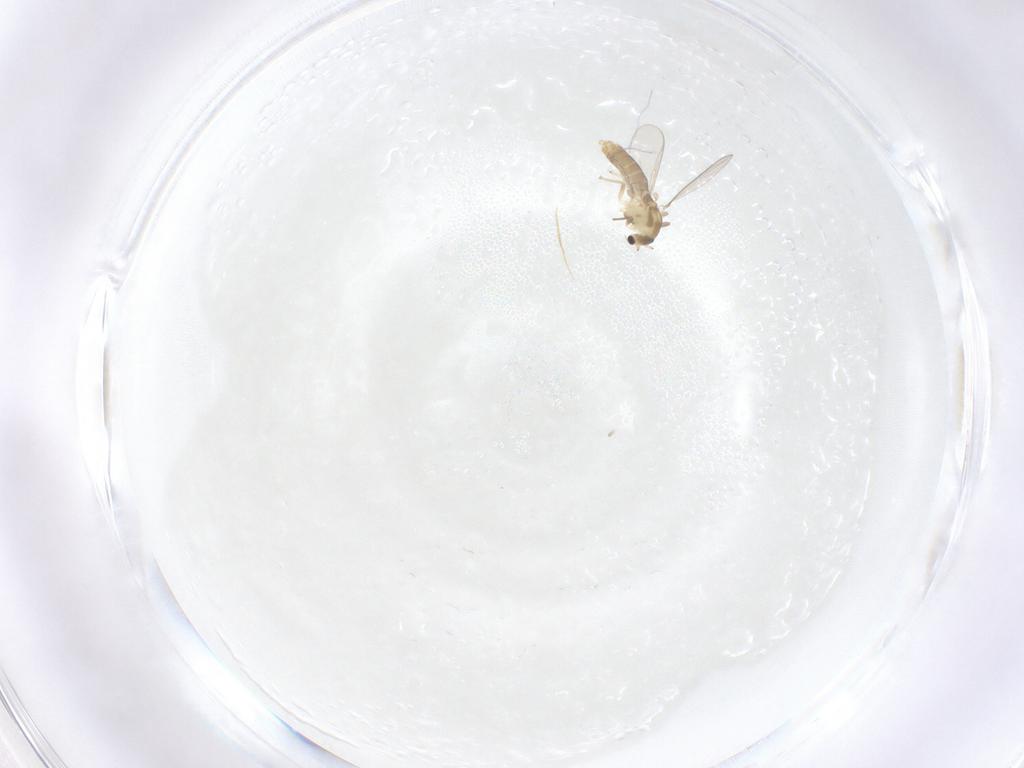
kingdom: Animalia
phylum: Arthropoda
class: Insecta
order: Diptera
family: Chironomidae
